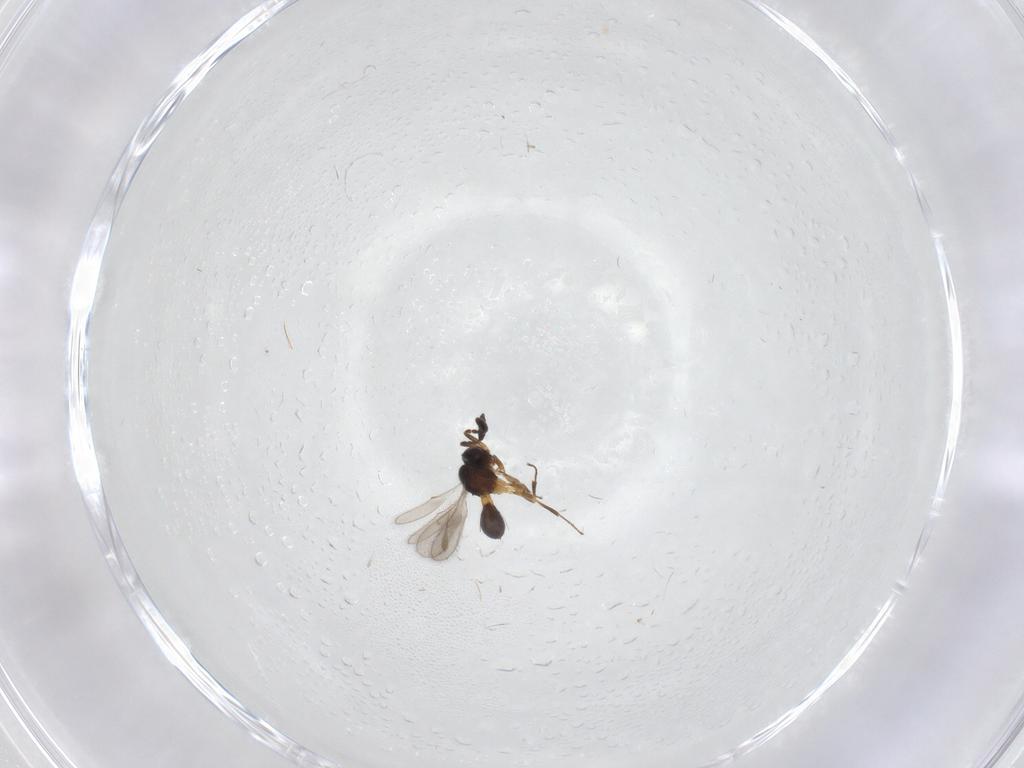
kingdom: Animalia
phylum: Arthropoda
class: Insecta
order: Hymenoptera
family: Scelionidae
